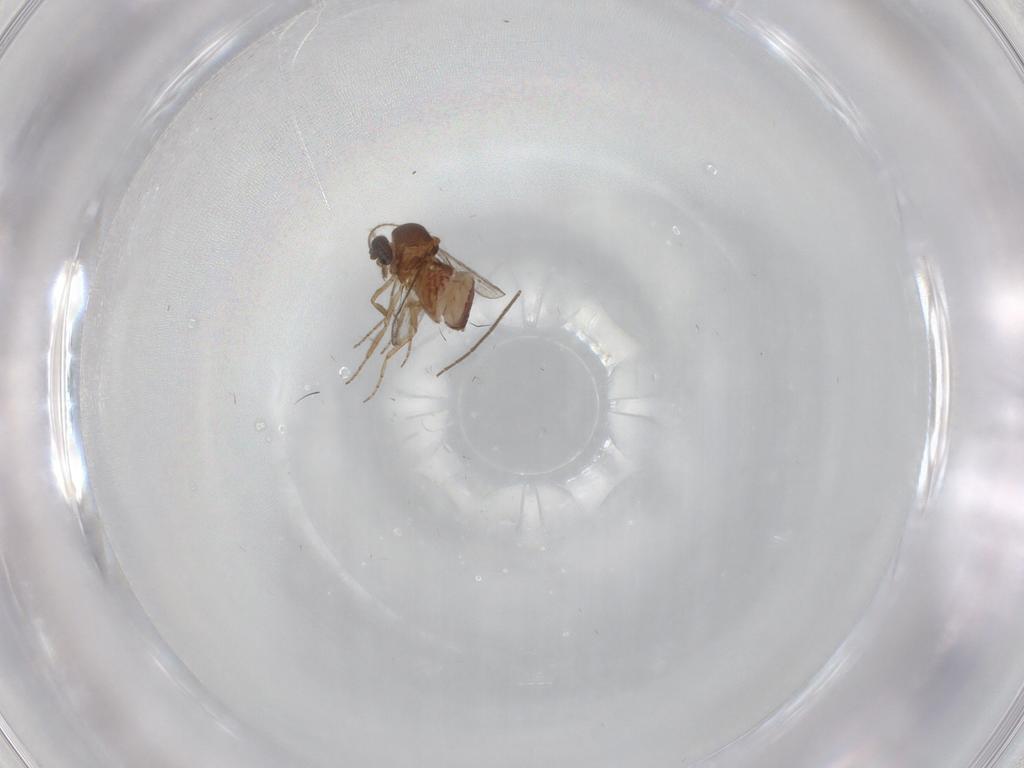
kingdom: Animalia
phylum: Arthropoda
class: Insecta
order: Diptera
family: Chironomidae
